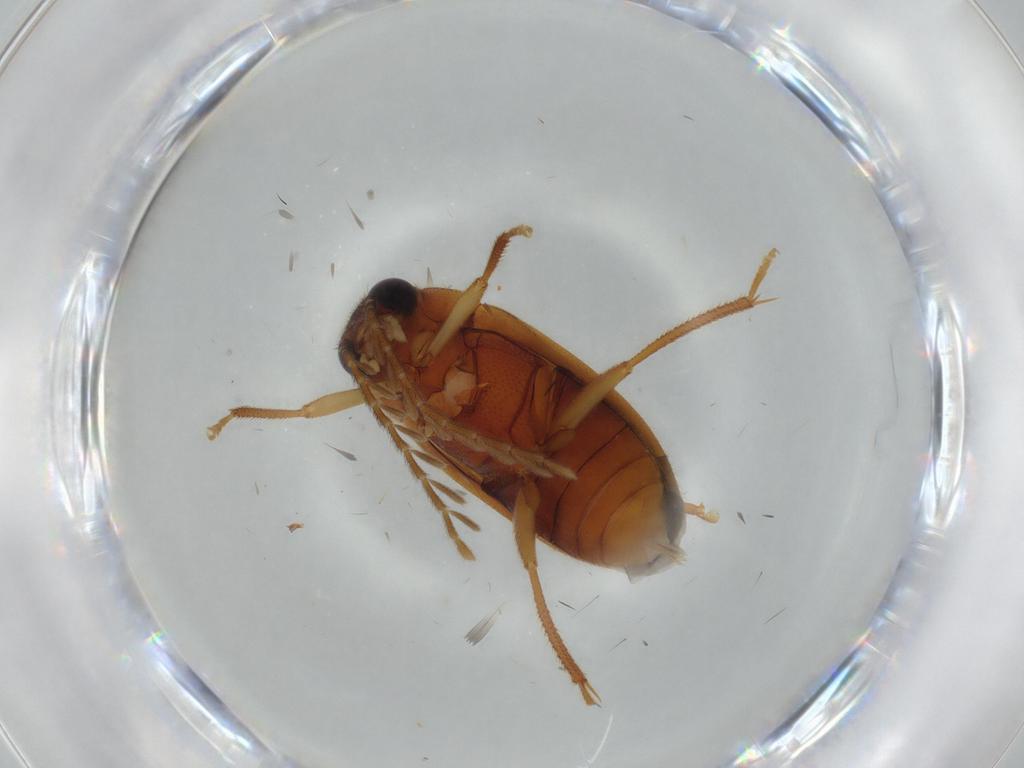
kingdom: Animalia
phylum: Arthropoda
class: Insecta
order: Coleoptera
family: Ptilodactylidae
